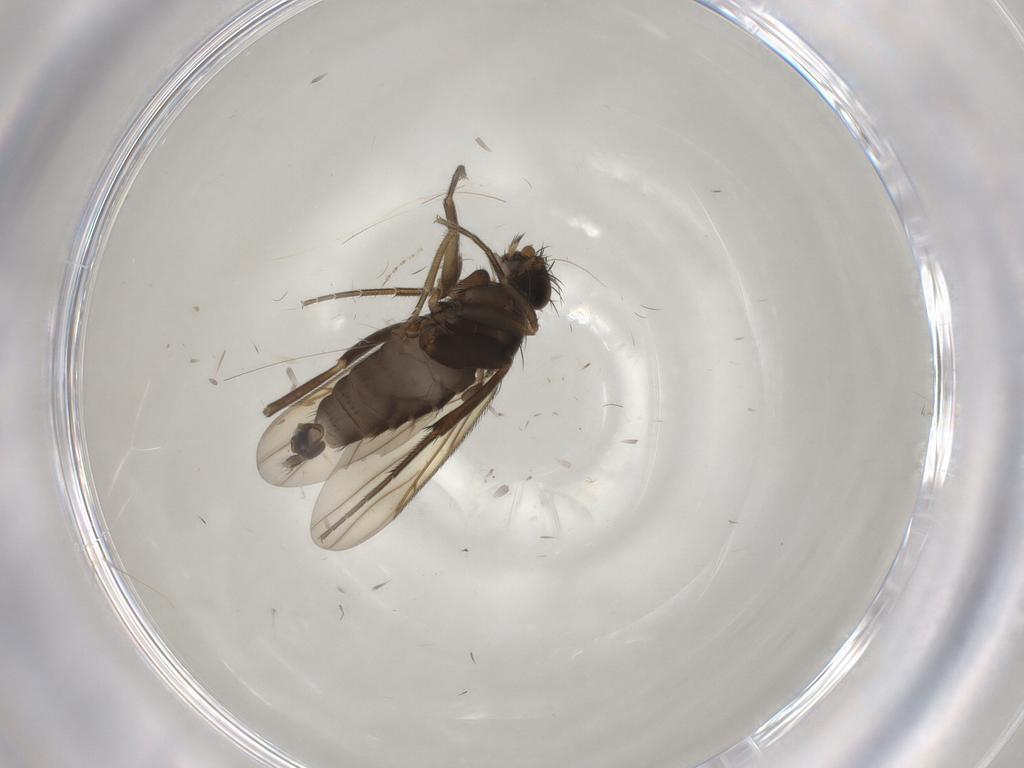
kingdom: Animalia
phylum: Arthropoda
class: Insecta
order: Diptera
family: Phoridae
